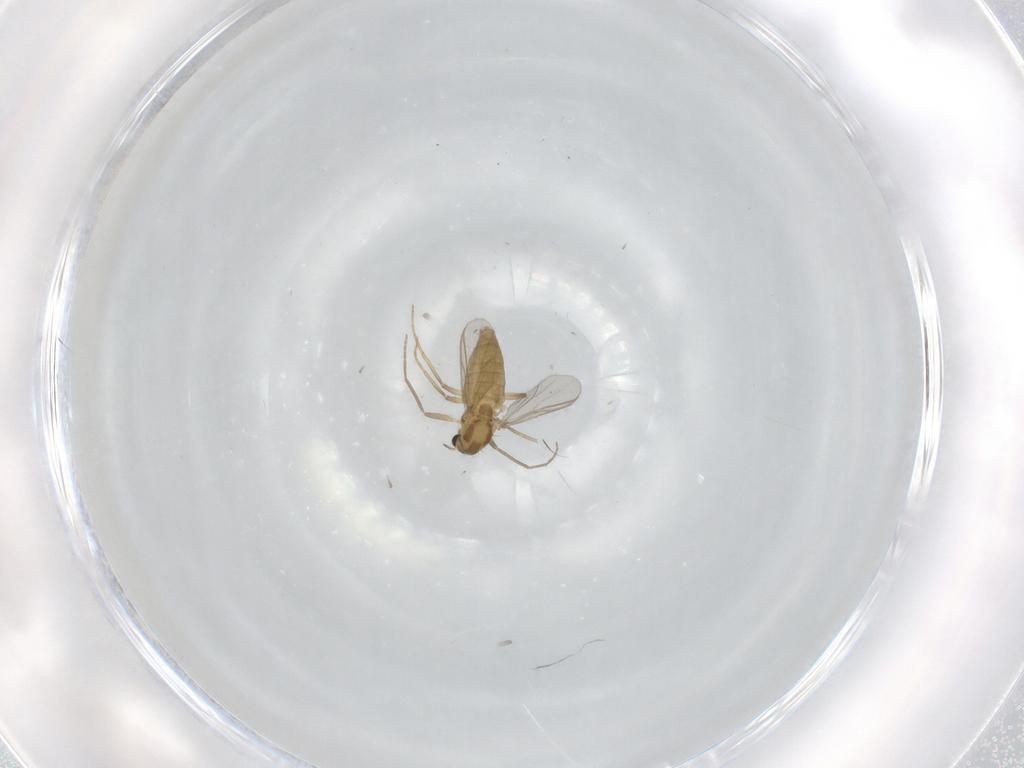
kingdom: Animalia
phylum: Arthropoda
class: Insecta
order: Diptera
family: Chironomidae
